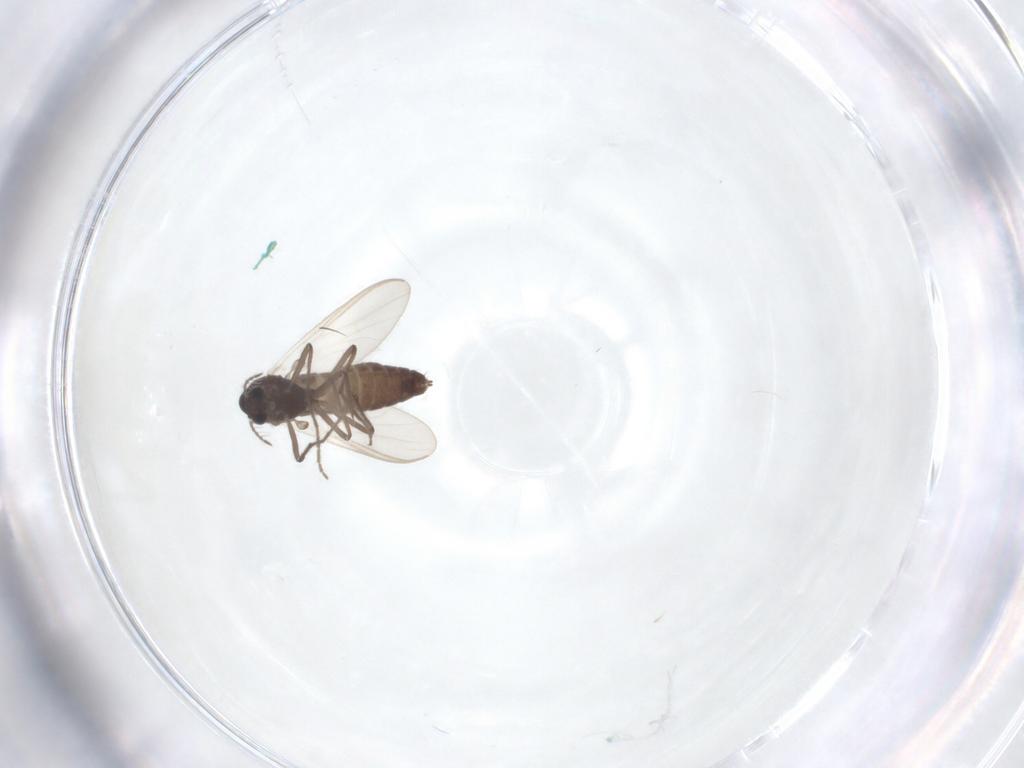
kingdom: Animalia
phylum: Arthropoda
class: Insecta
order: Diptera
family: Chironomidae
